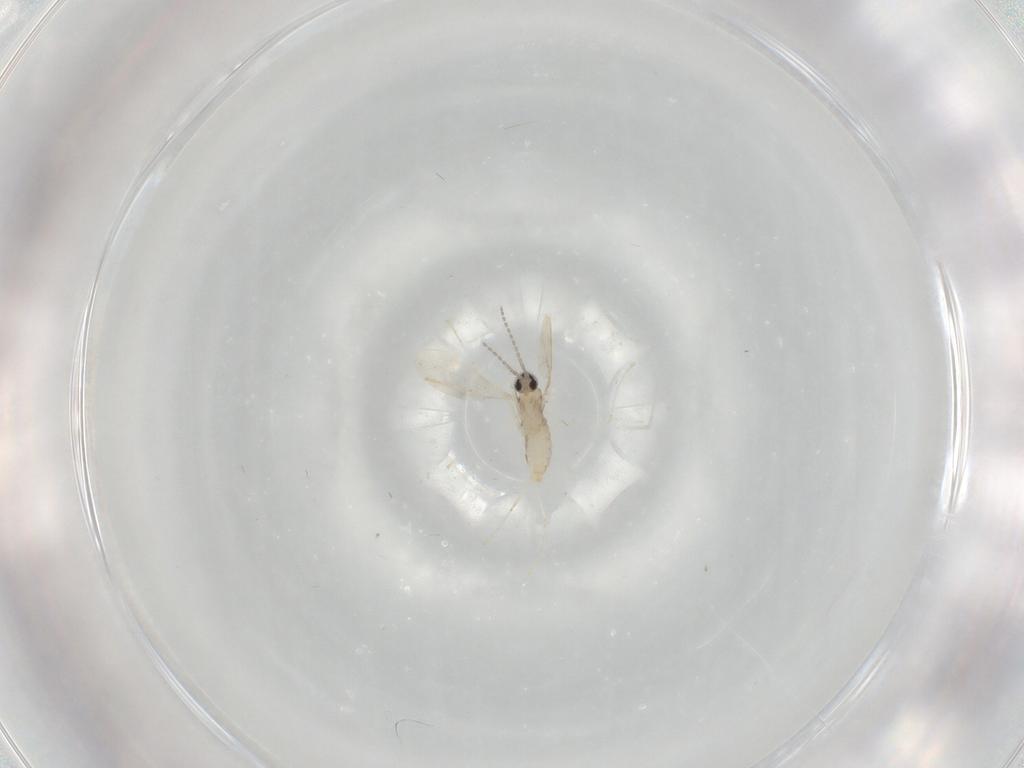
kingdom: Animalia
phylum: Arthropoda
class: Insecta
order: Diptera
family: Cecidomyiidae
